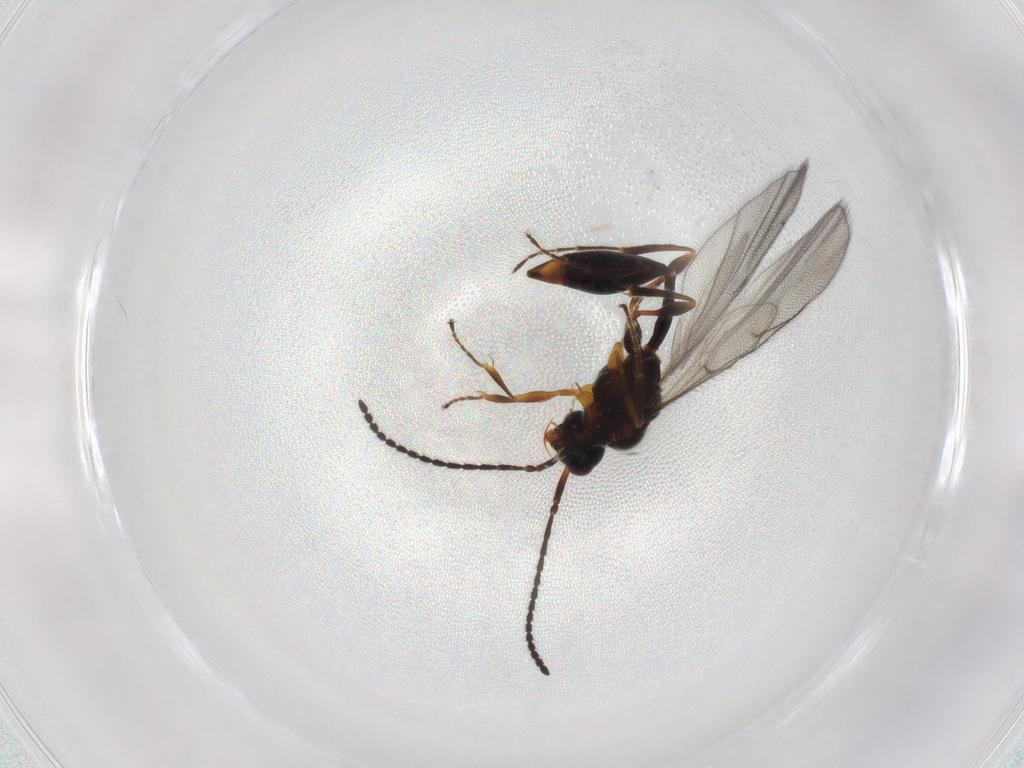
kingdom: Animalia
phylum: Arthropoda
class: Insecta
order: Hymenoptera
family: Diapriidae
